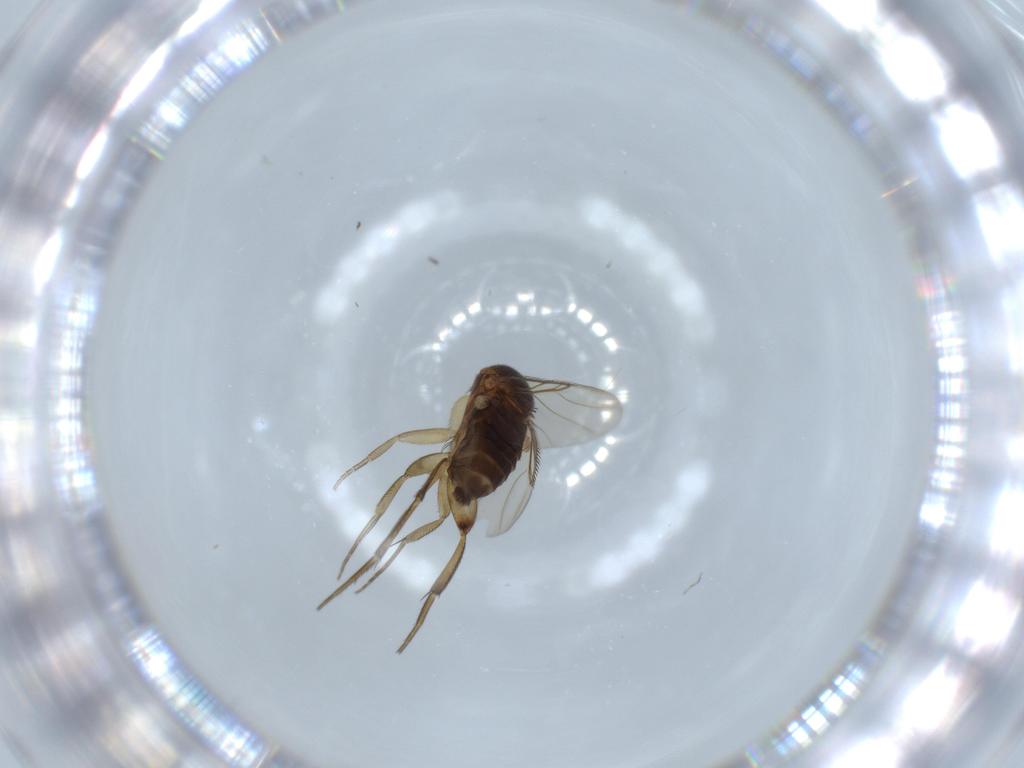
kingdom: Animalia
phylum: Arthropoda
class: Insecta
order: Diptera
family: Phoridae
